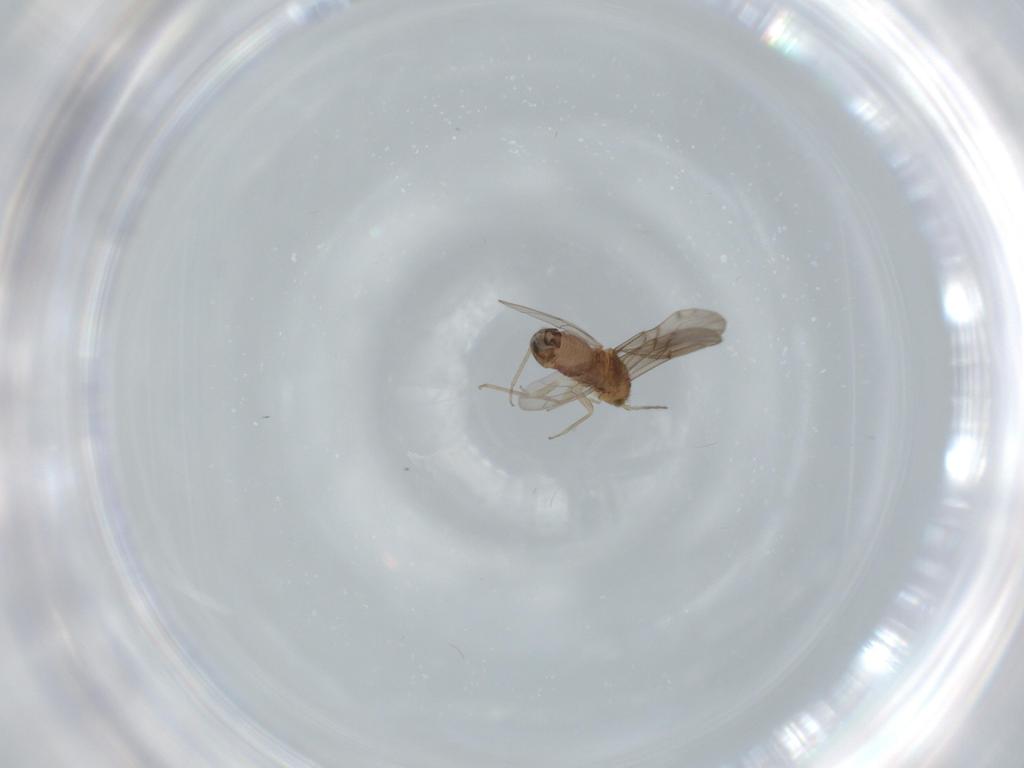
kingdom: Animalia
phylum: Arthropoda
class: Insecta
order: Psocodea
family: Ectopsocidae
